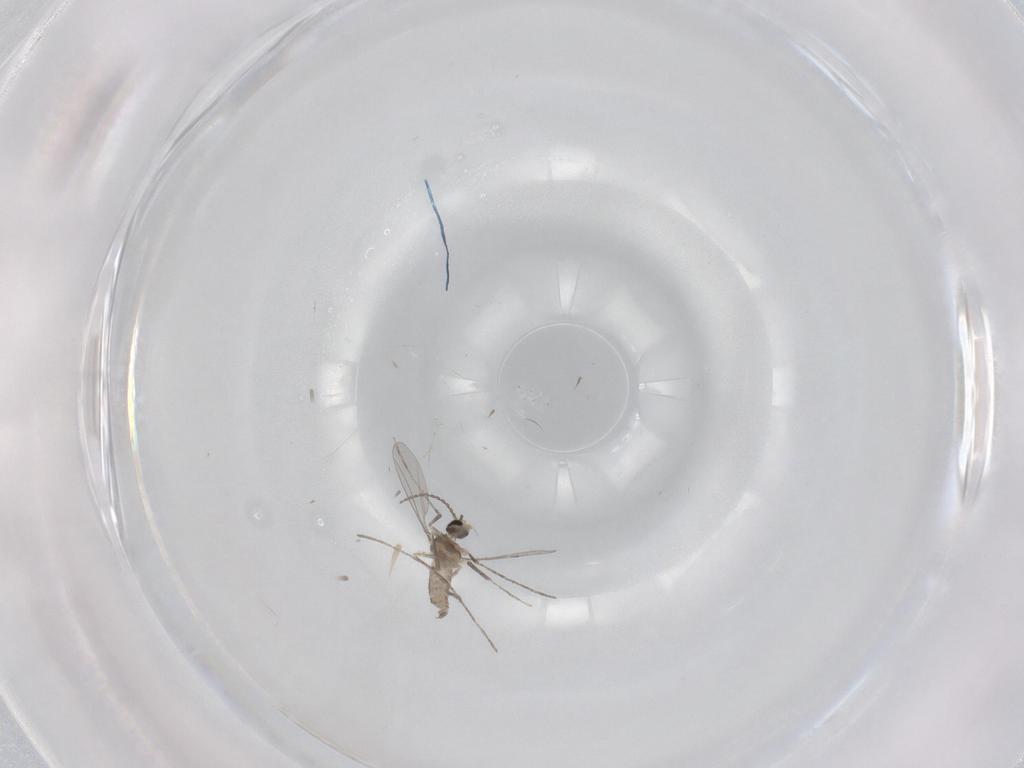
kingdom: Animalia
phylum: Arthropoda
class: Insecta
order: Diptera
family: Cecidomyiidae
